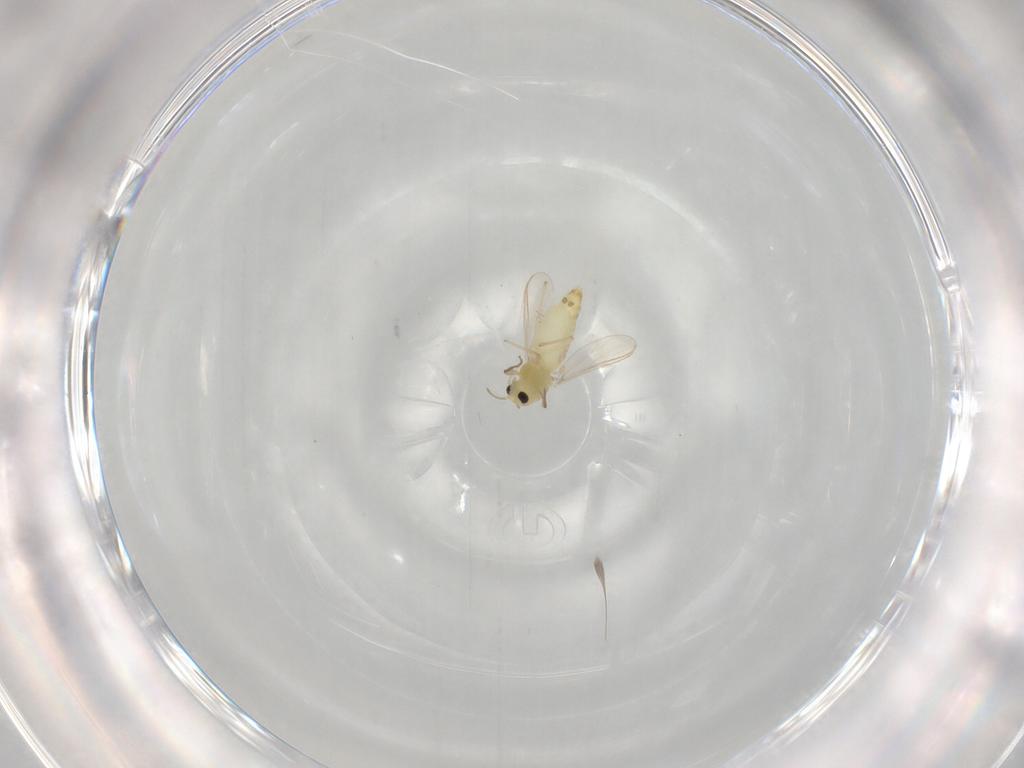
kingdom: Animalia
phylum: Arthropoda
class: Insecta
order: Diptera
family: Chironomidae
